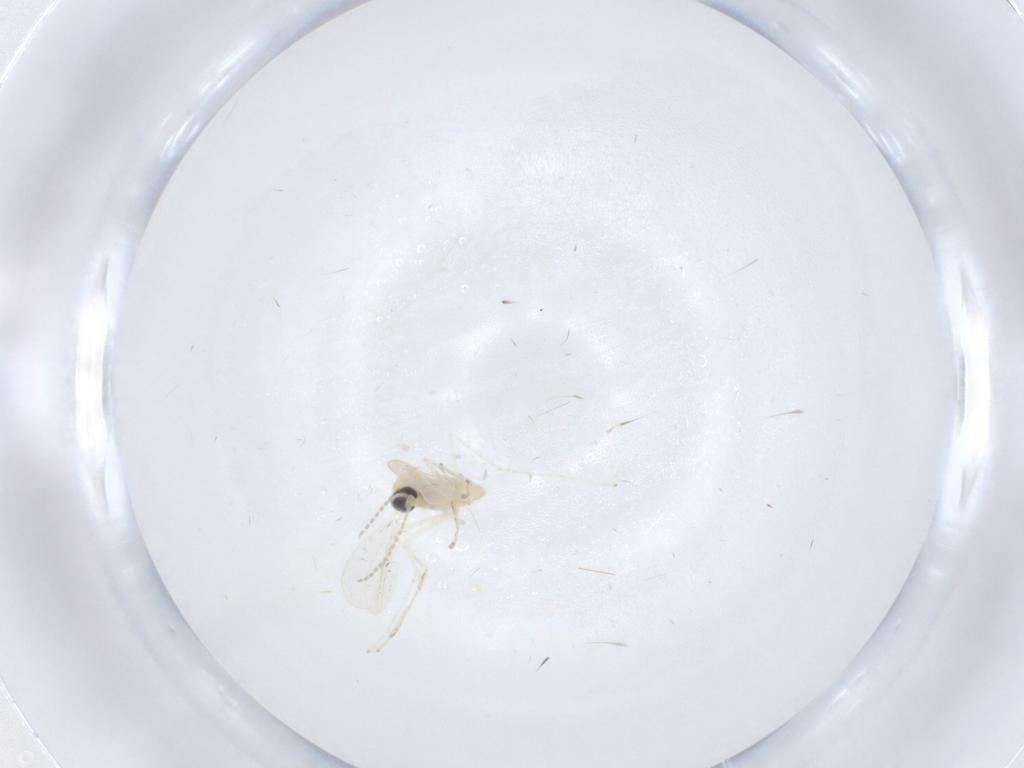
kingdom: Animalia
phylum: Arthropoda
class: Insecta
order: Diptera
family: Cecidomyiidae
